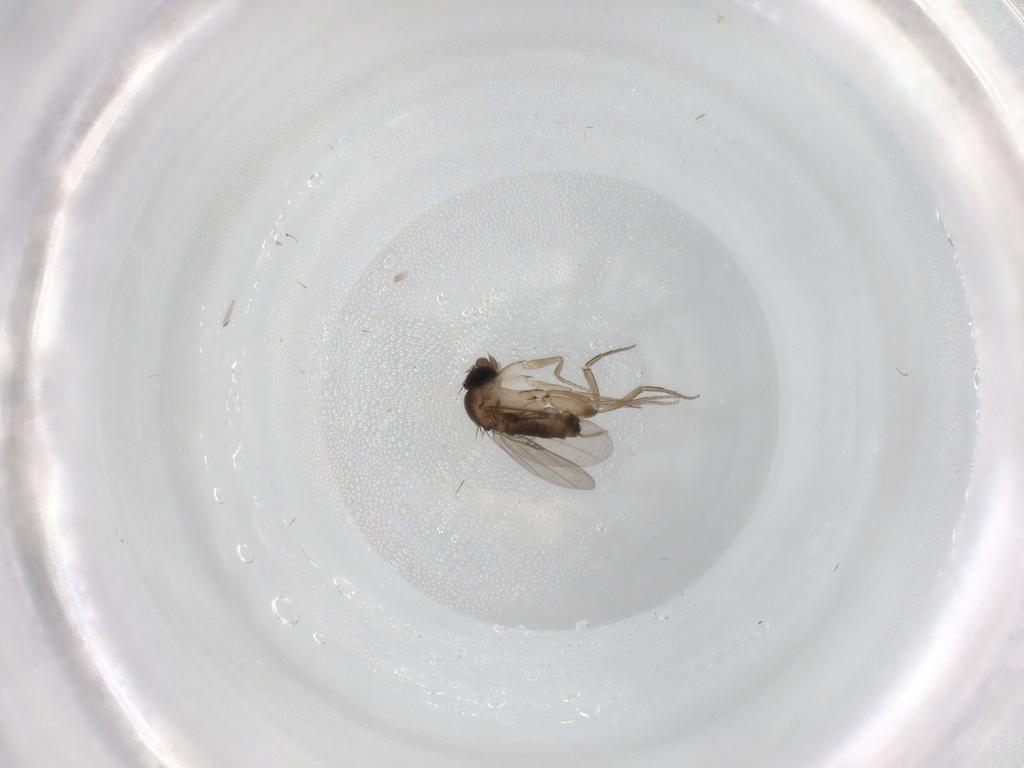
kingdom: Animalia
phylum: Arthropoda
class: Insecta
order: Diptera
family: Phoridae
